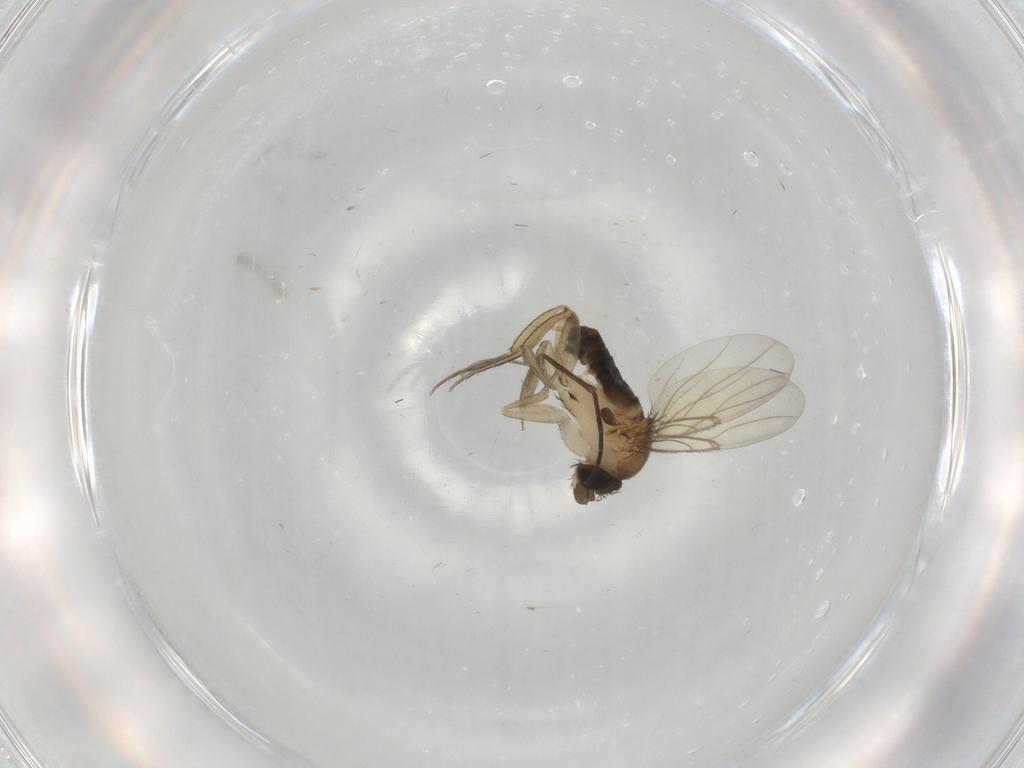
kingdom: Animalia
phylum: Arthropoda
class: Insecta
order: Diptera
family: Phoridae
